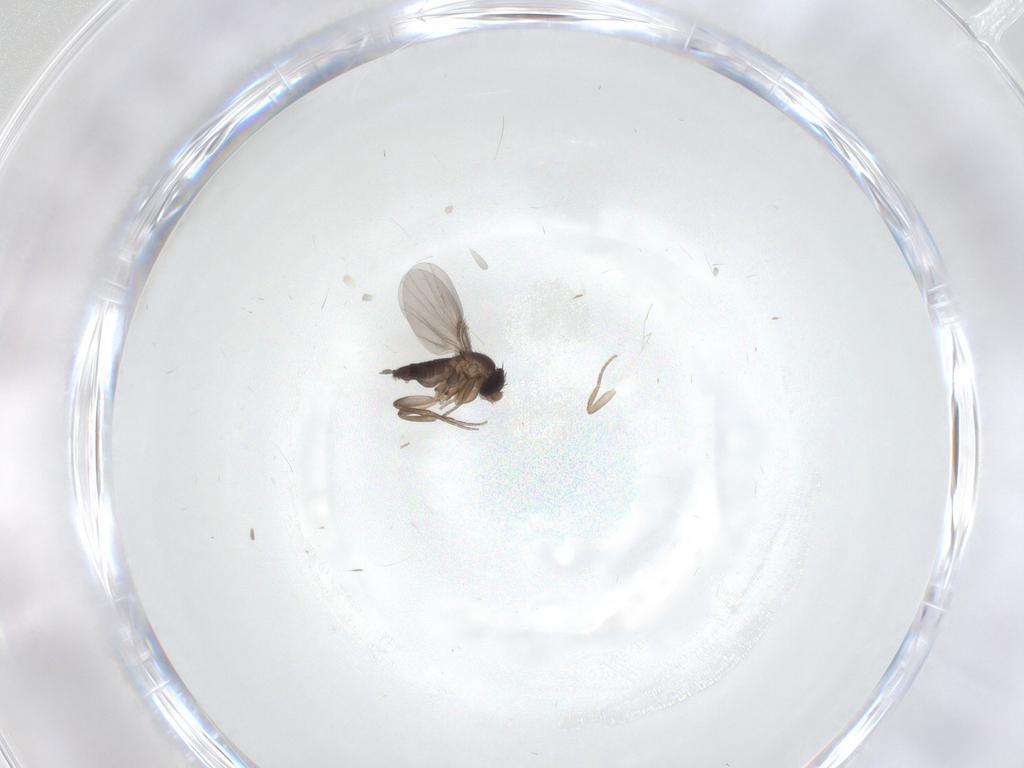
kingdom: Animalia
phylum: Arthropoda
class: Insecta
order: Diptera
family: Phoridae
